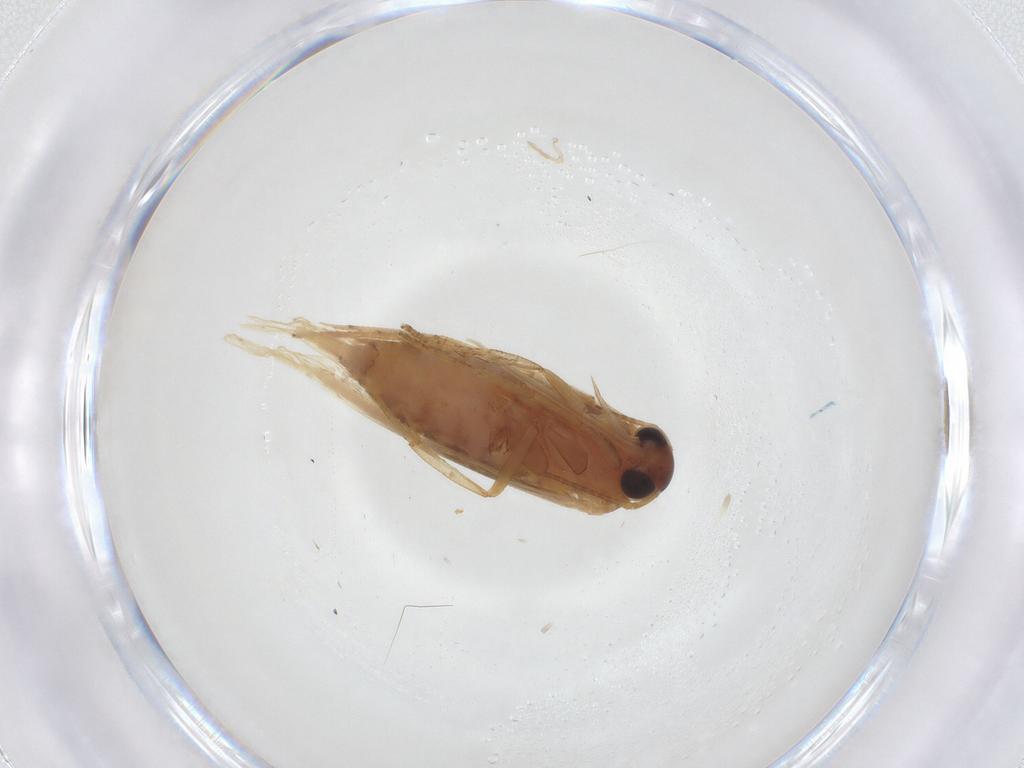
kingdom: Animalia
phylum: Arthropoda
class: Insecta
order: Lepidoptera
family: Blastobasidae
